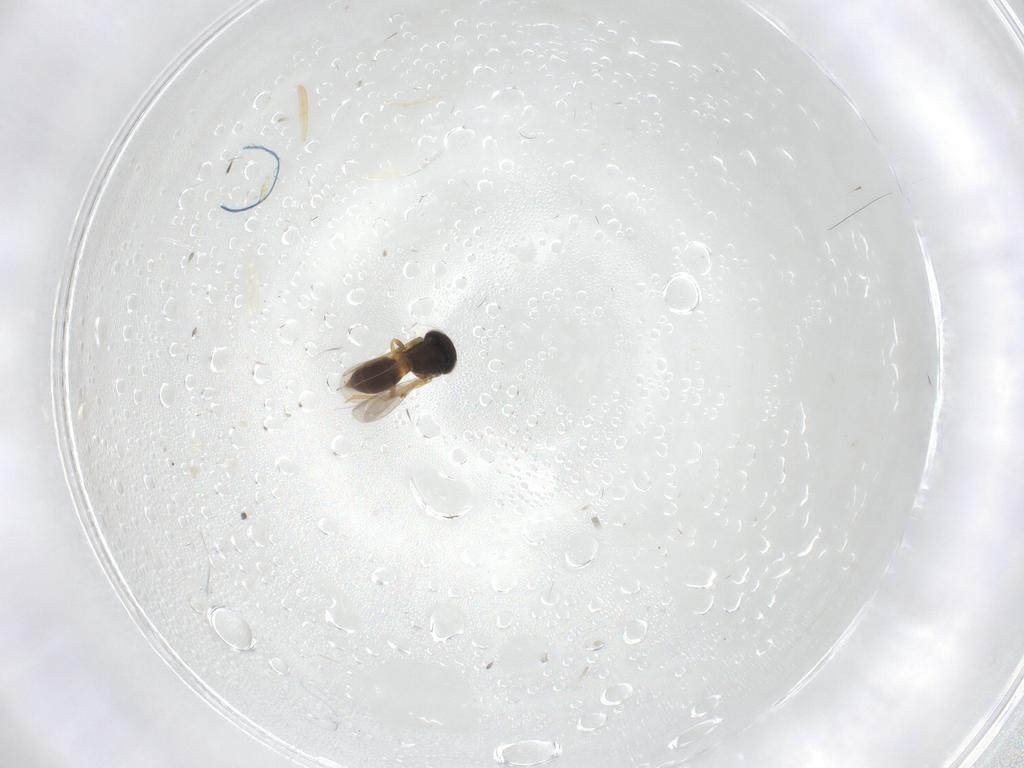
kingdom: Animalia
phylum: Arthropoda
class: Insecta
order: Hymenoptera
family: Scelionidae
